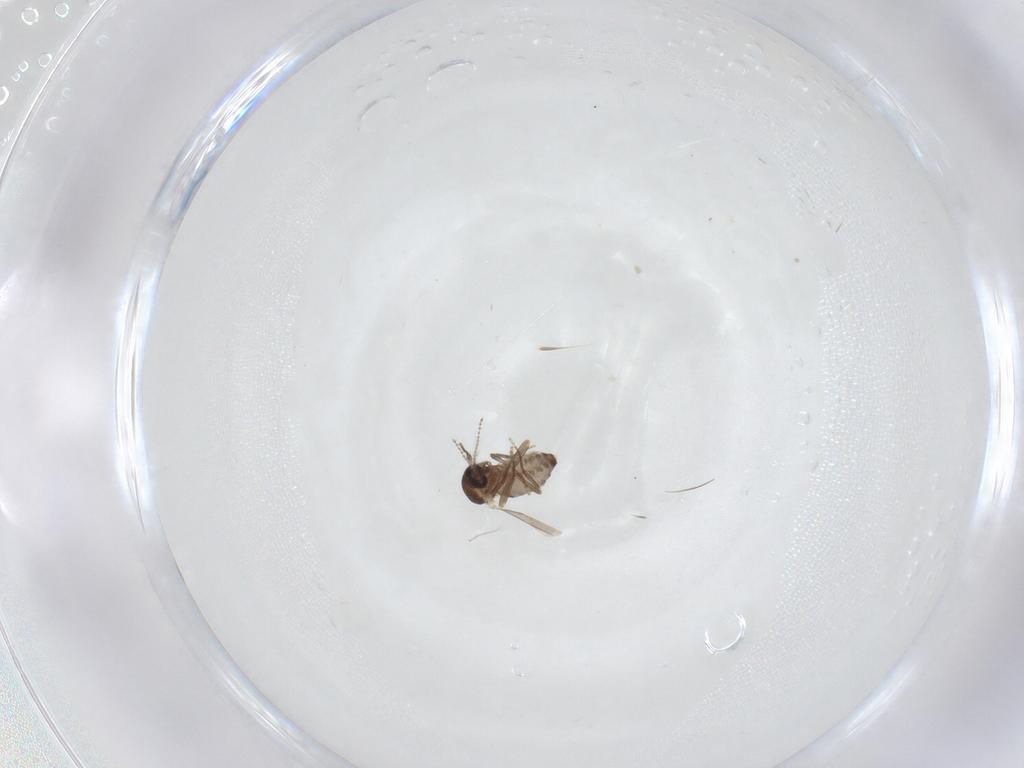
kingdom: Animalia
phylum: Arthropoda
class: Insecta
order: Diptera
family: Ceratopogonidae
